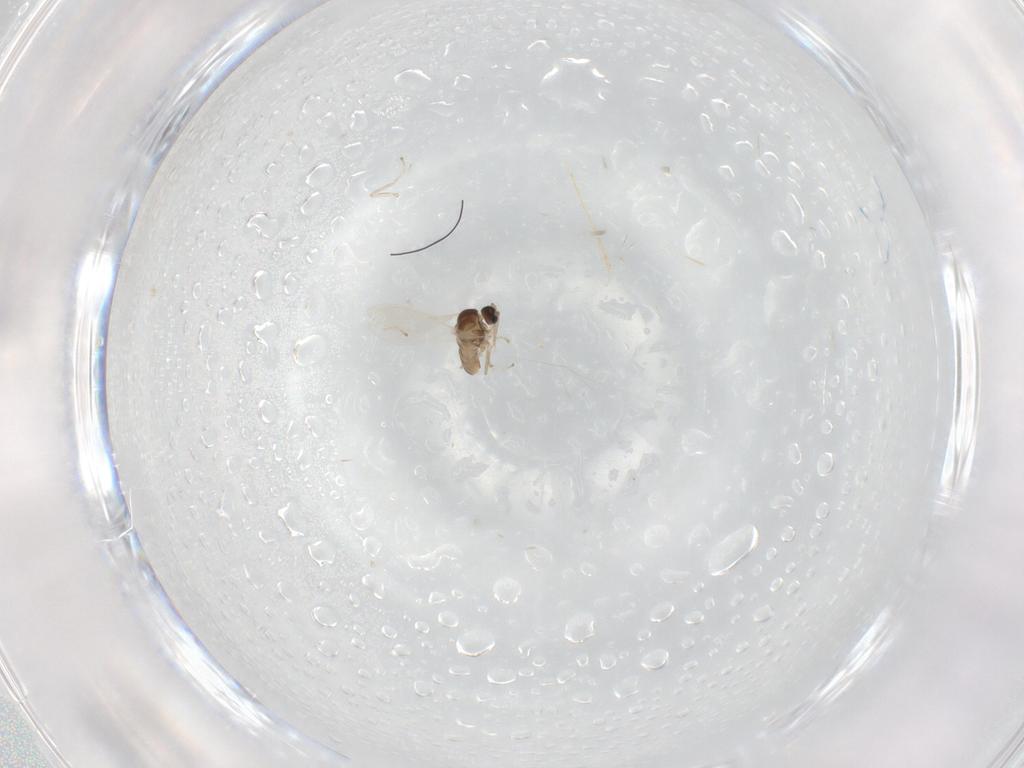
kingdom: Animalia
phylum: Arthropoda
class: Insecta
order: Diptera
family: Cecidomyiidae
